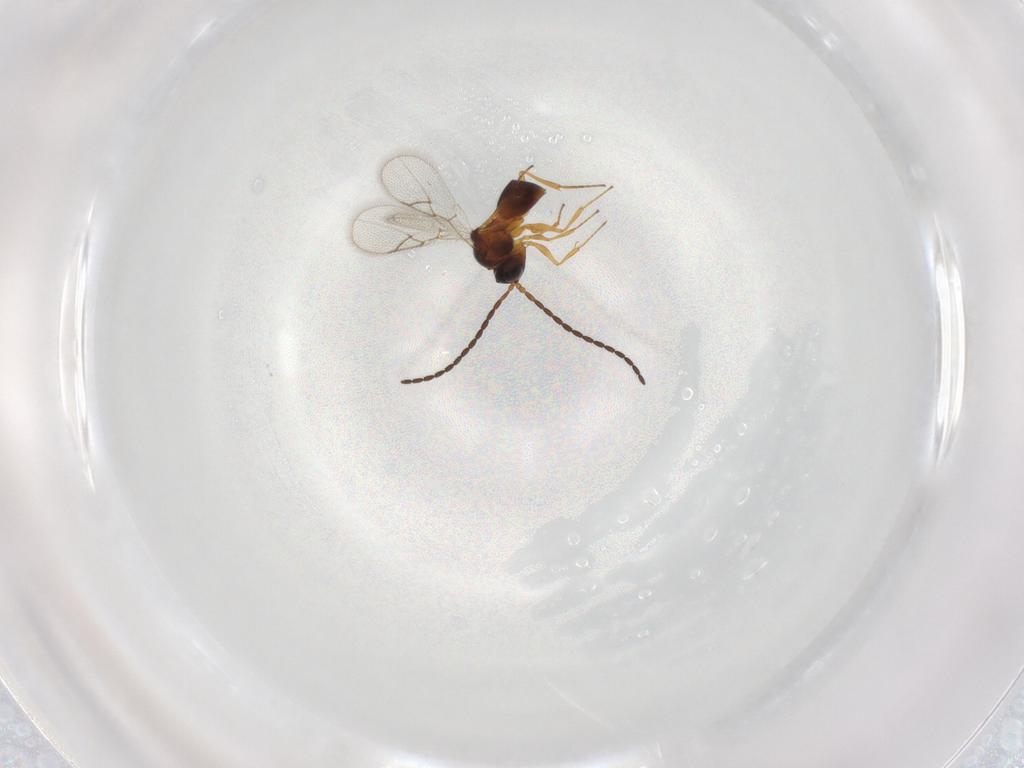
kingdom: Animalia
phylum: Arthropoda
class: Insecta
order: Hymenoptera
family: Figitidae
